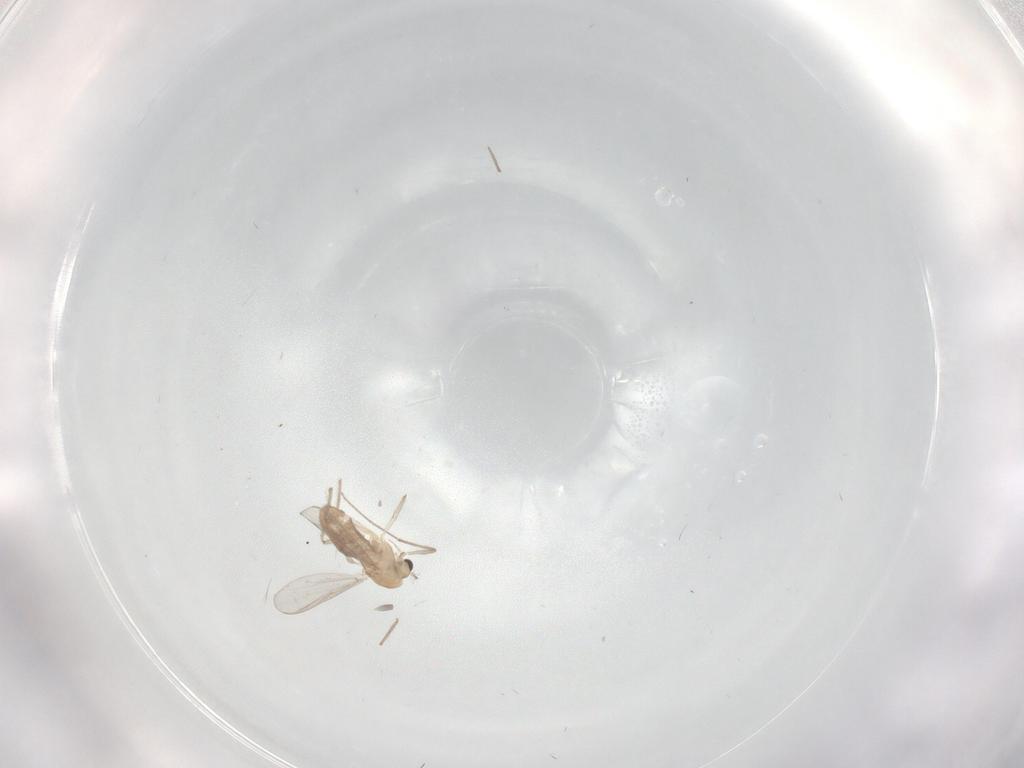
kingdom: Animalia
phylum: Arthropoda
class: Insecta
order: Diptera
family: Chironomidae
